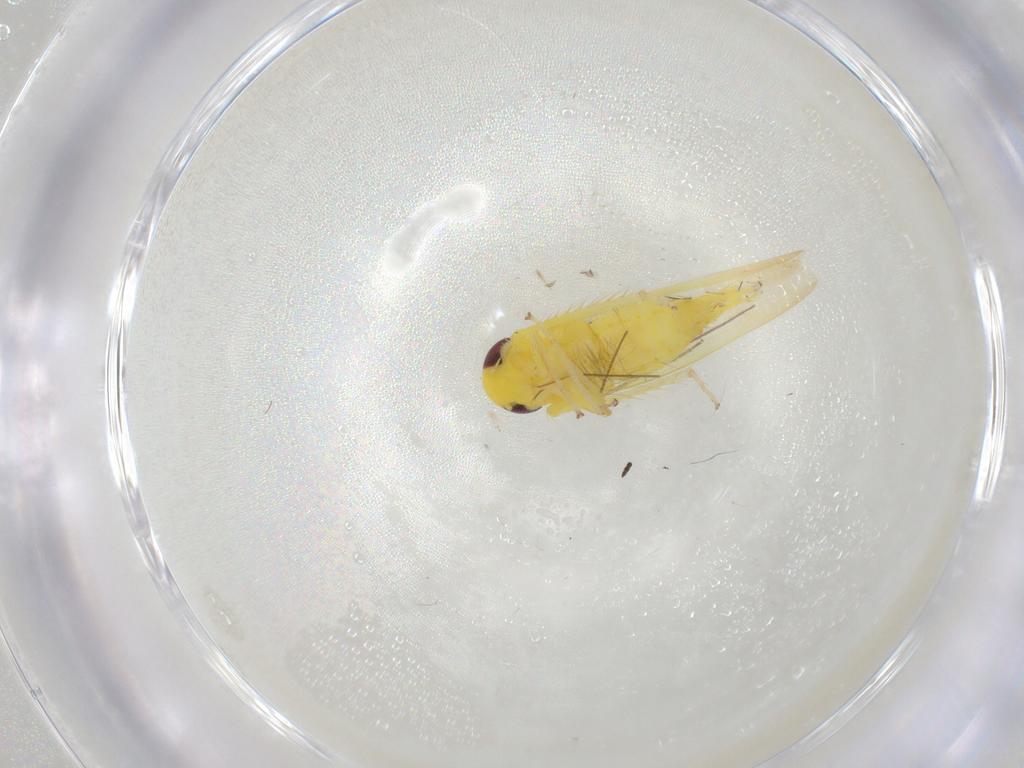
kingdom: Animalia
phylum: Arthropoda
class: Insecta
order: Hemiptera
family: Cicadellidae
